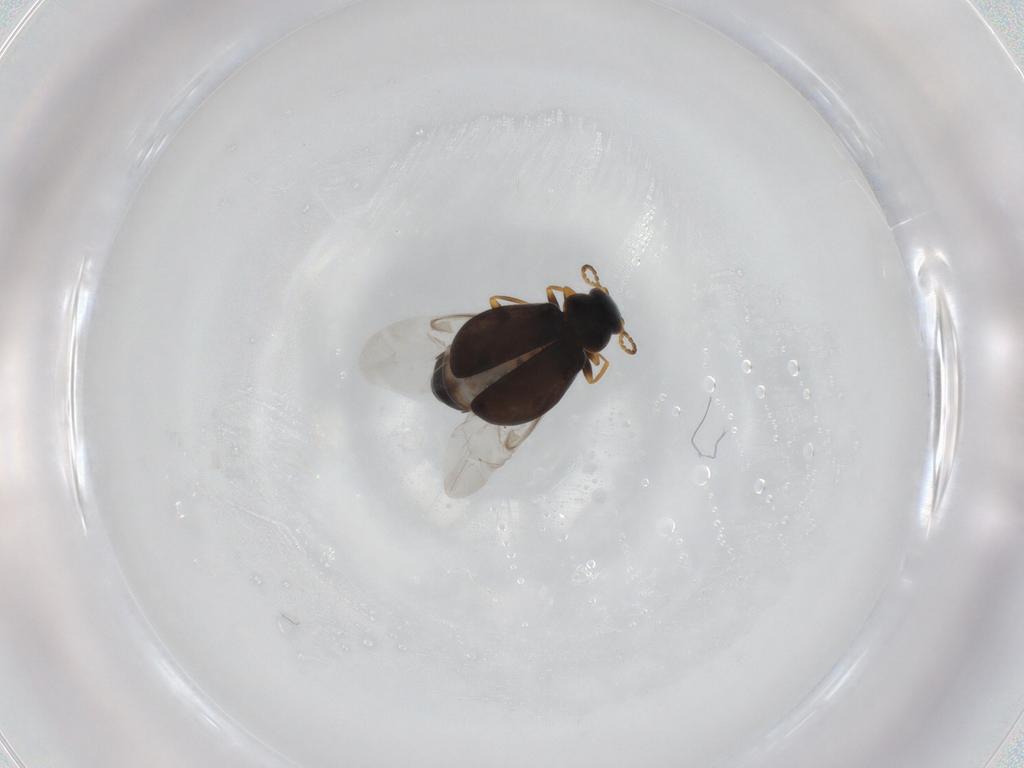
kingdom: Animalia
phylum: Arthropoda
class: Insecta
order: Coleoptera
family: Melyridae
